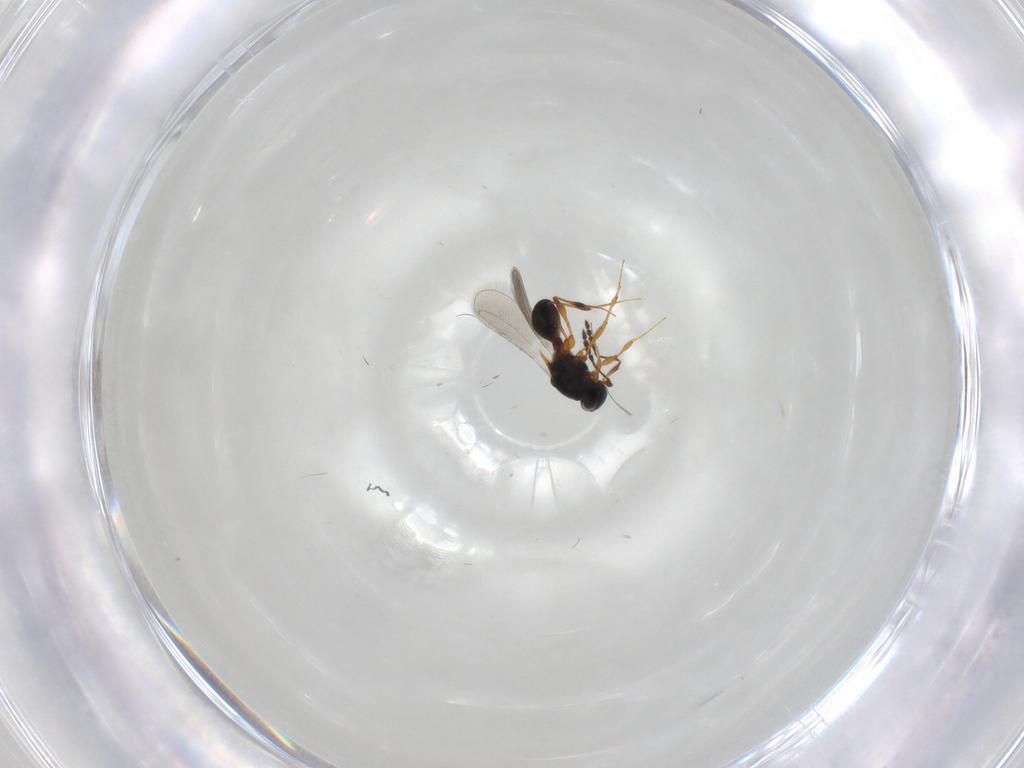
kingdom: Animalia
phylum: Arthropoda
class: Insecta
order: Hymenoptera
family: Platygastridae
